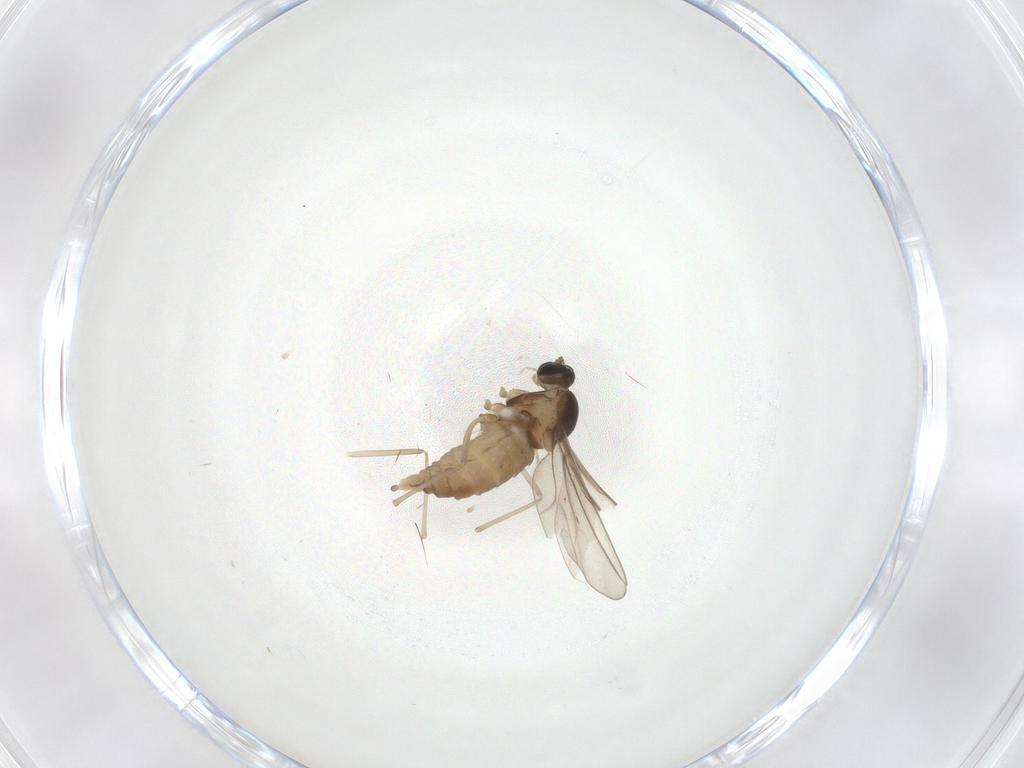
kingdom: Animalia
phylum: Arthropoda
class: Insecta
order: Diptera
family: Cecidomyiidae
